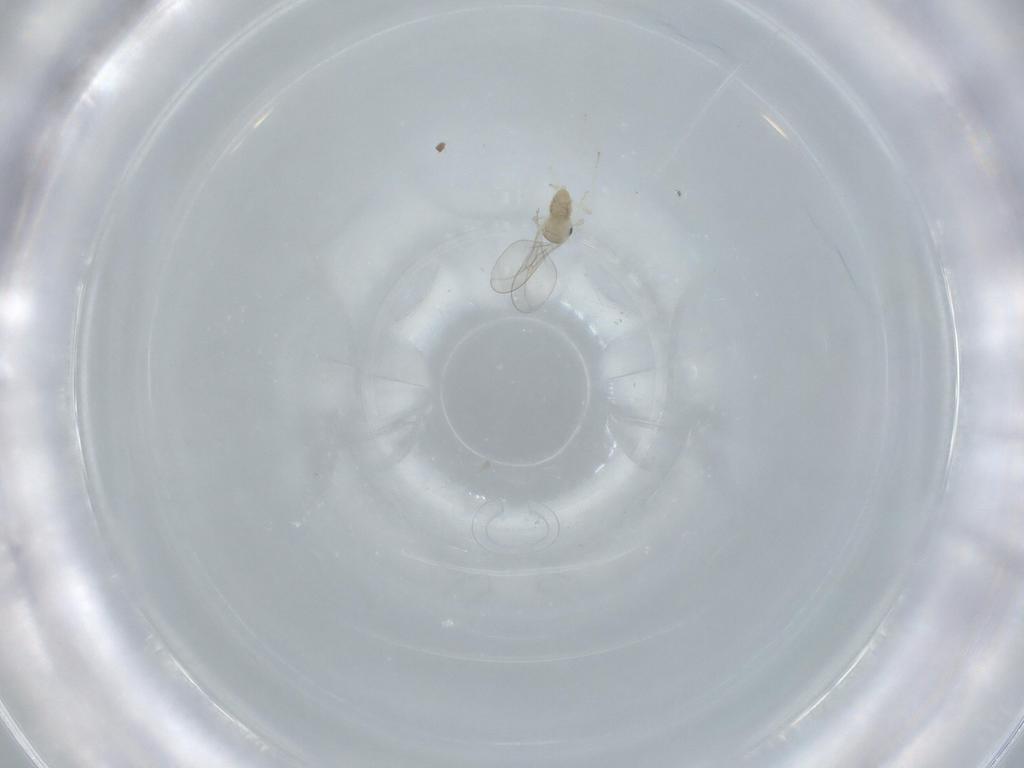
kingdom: Animalia
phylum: Arthropoda
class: Insecta
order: Diptera
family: Cecidomyiidae
